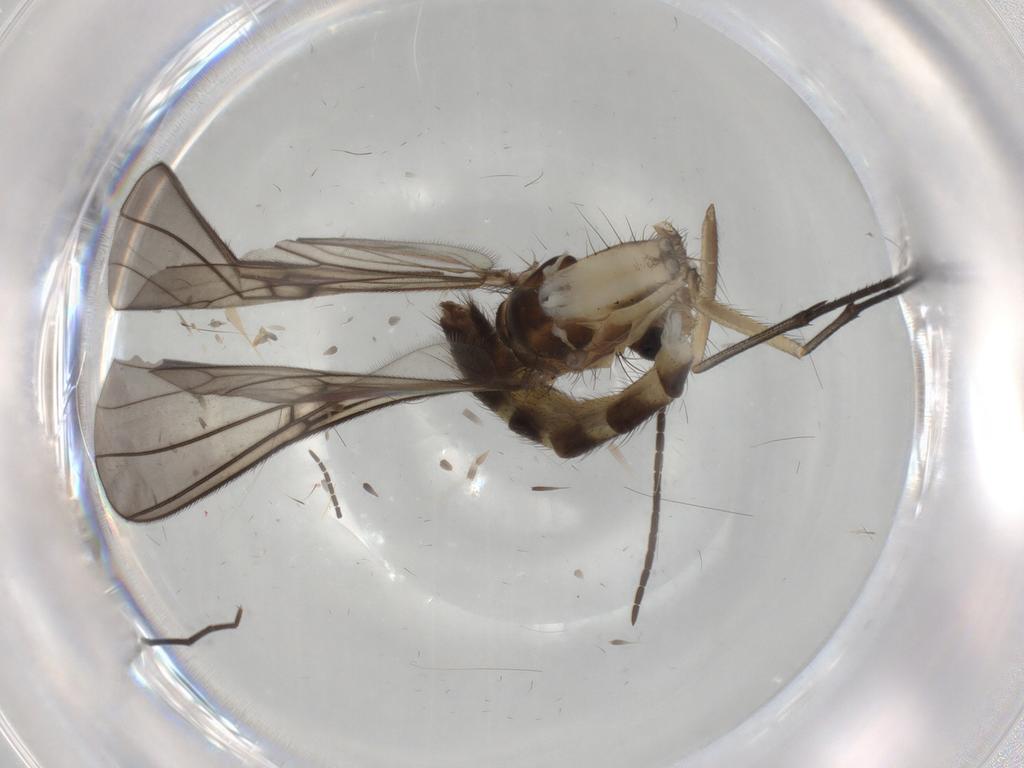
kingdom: Animalia
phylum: Arthropoda
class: Insecta
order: Diptera
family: Mycetophilidae
